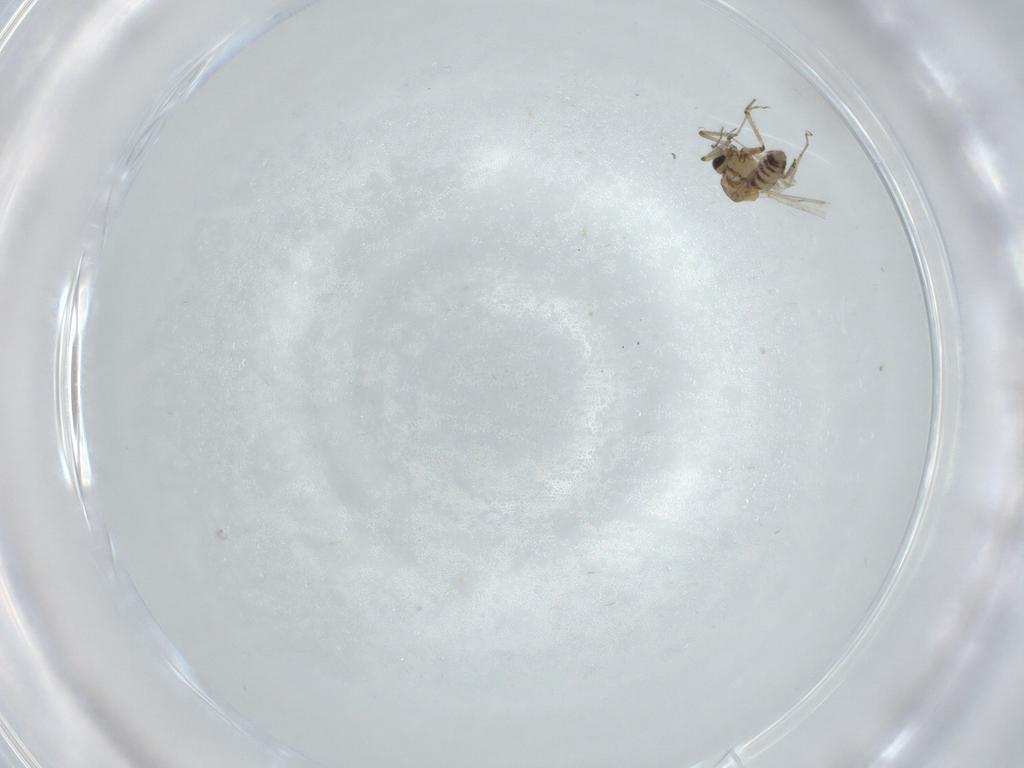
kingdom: Animalia
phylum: Arthropoda
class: Insecta
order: Diptera
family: Ceratopogonidae
